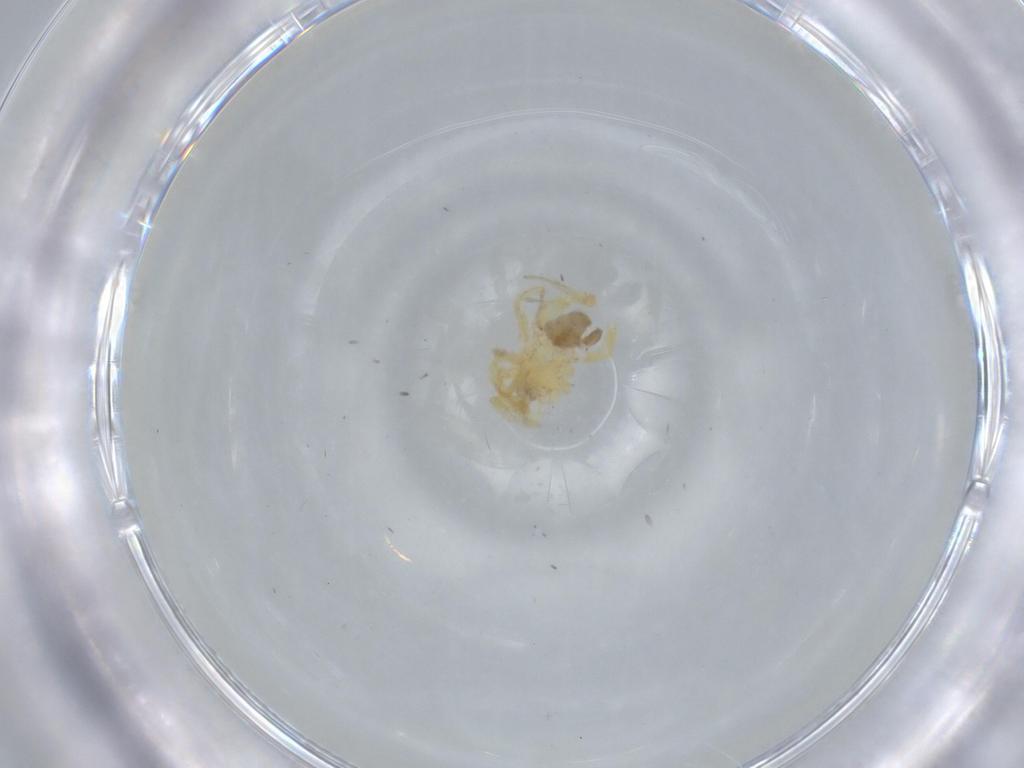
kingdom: Animalia
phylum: Arthropoda
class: Arachnida
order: Araneae
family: Oonopidae
